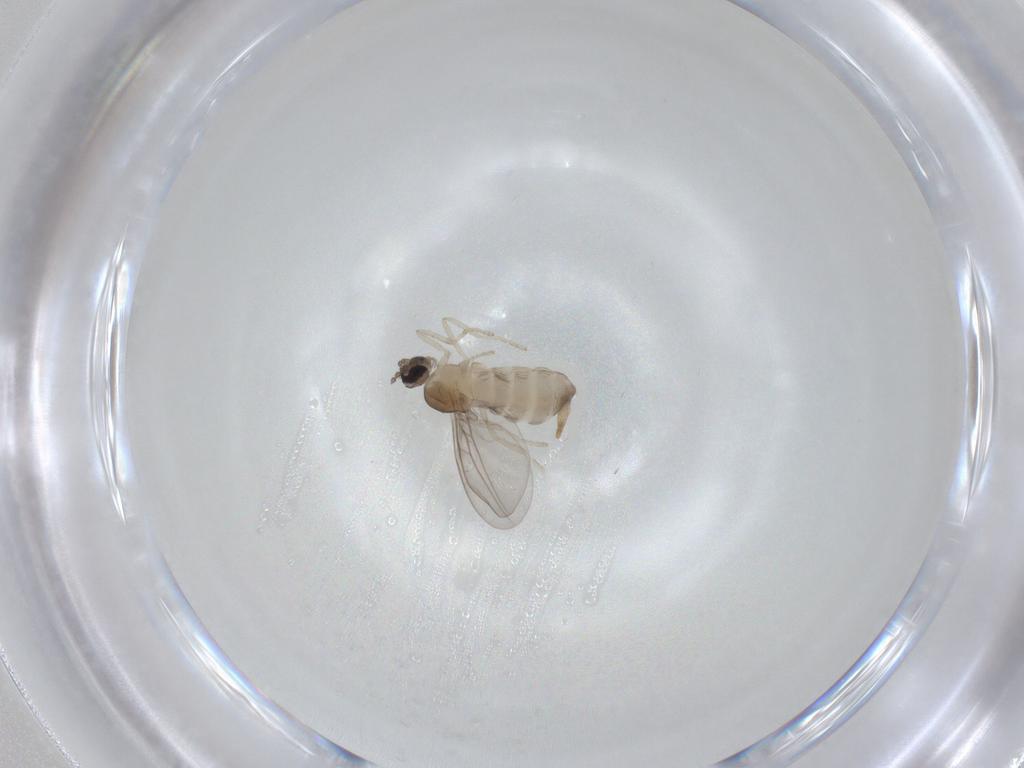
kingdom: Animalia
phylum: Arthropoda
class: Insecta
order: Diptera
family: Cecidomyiidae
